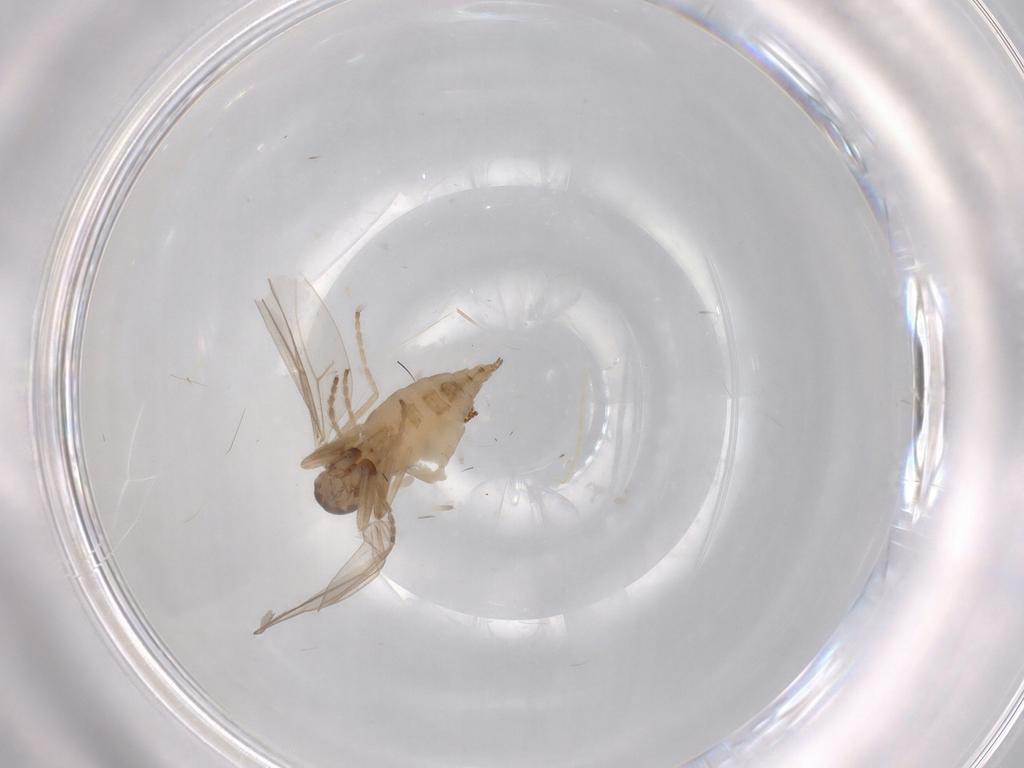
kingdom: Animalia
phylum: Arthropoda
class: Insecta
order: Diptera
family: Cecidomyiidae
